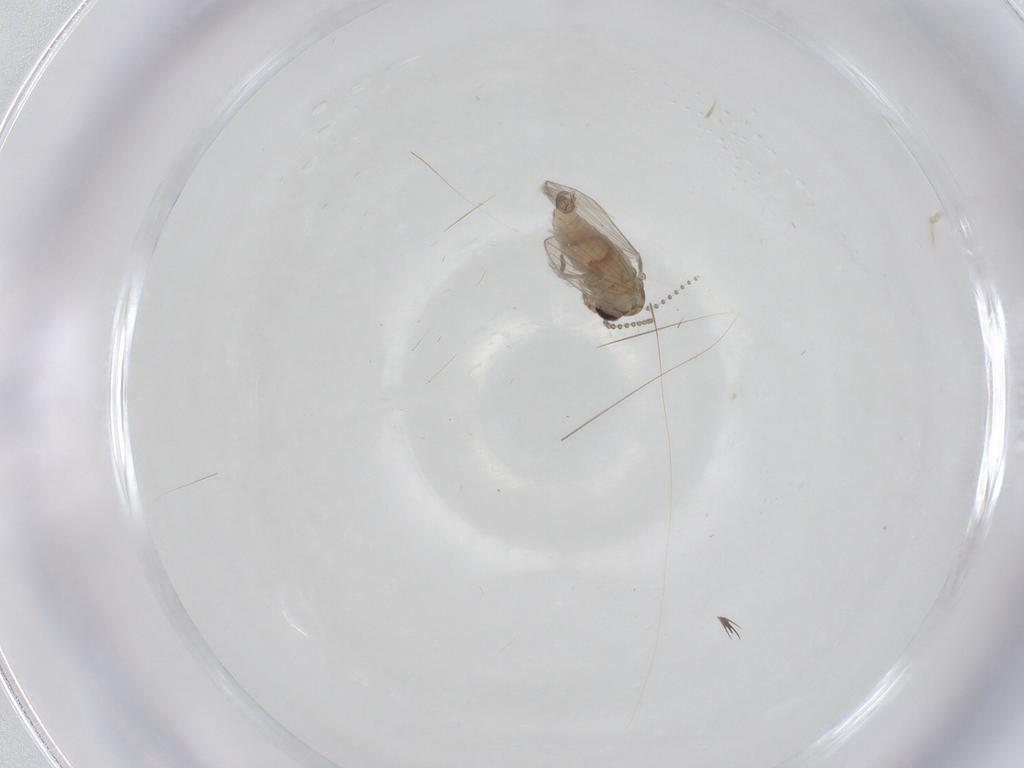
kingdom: Animalia
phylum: Arthropoda
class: Insecta
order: Diptera
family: Psychodidae
